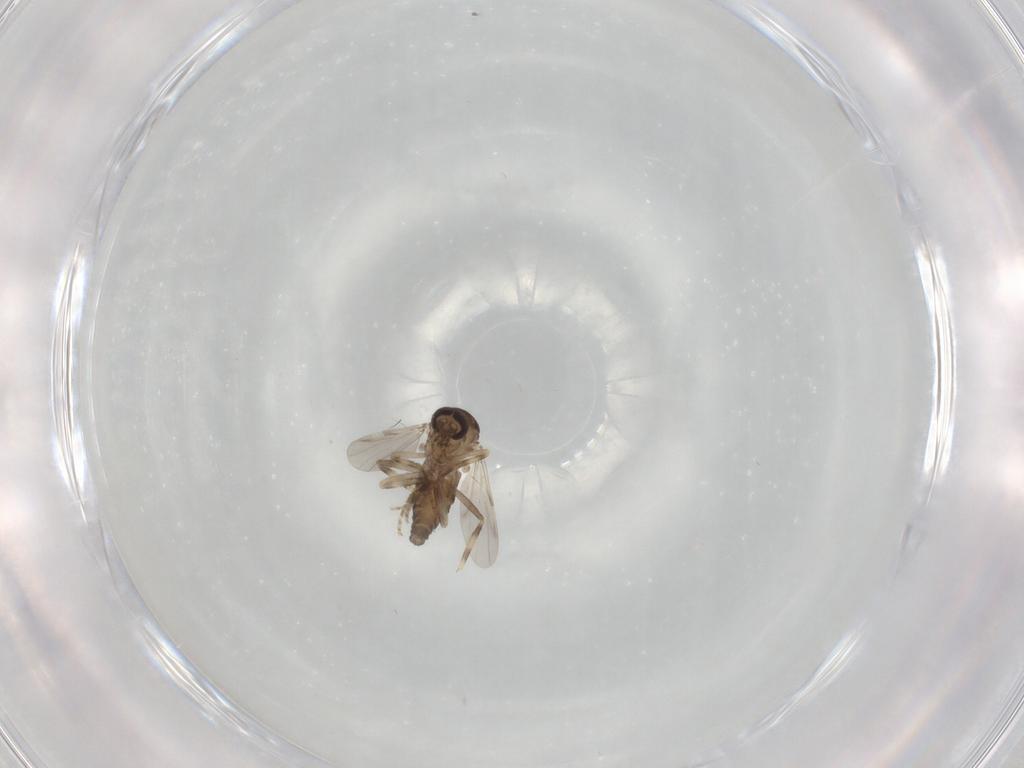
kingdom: Animalia
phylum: Arthropoda
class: Insecta
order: Diptera
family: Ceratopogonidae
